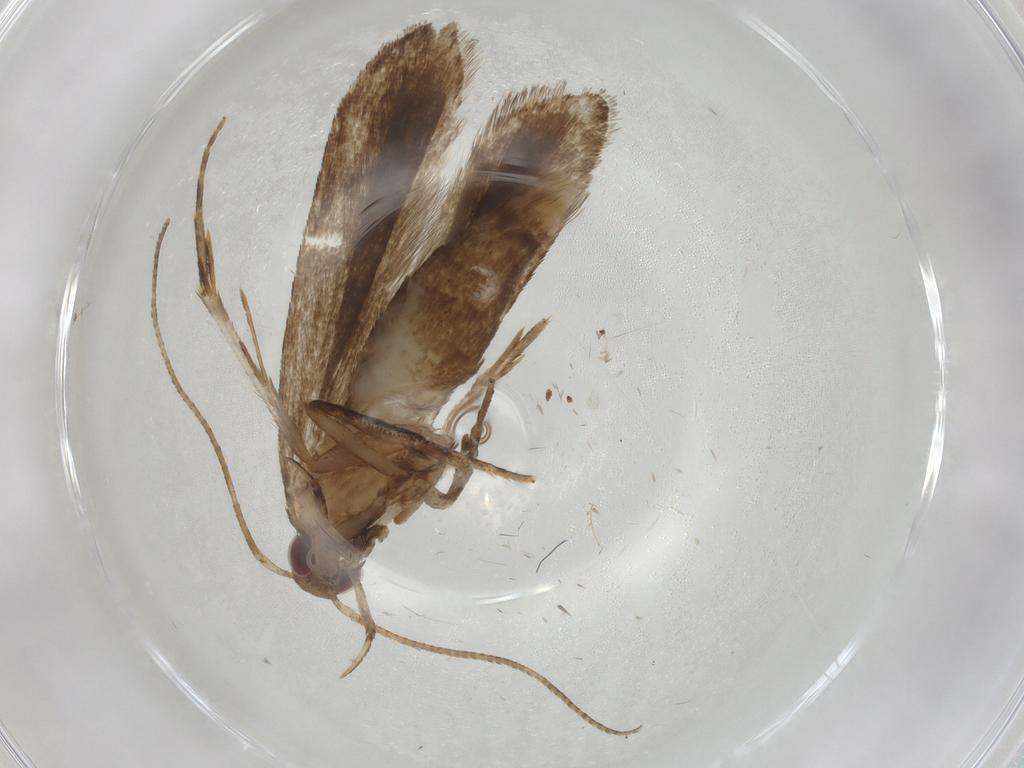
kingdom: Animalia
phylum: Arthropoda
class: Insecta
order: Lepidoptera
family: Gelechiidae
